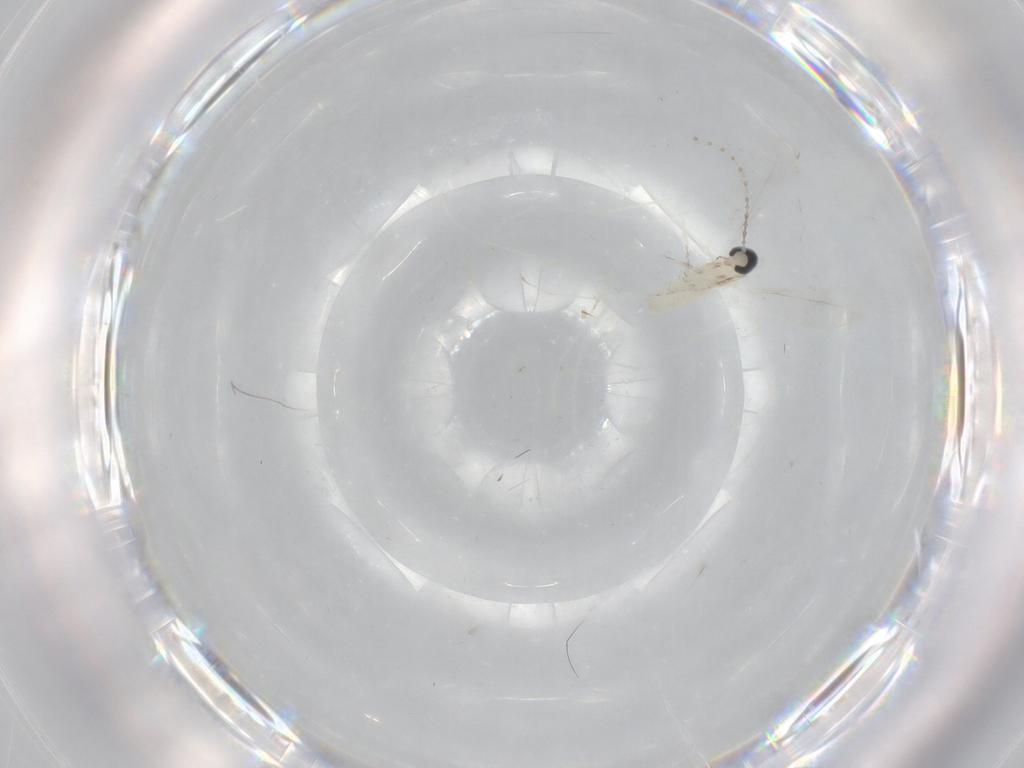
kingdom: Animalia
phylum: Arthropoda
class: Insecta
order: Diptera
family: Cecidomyiidae
